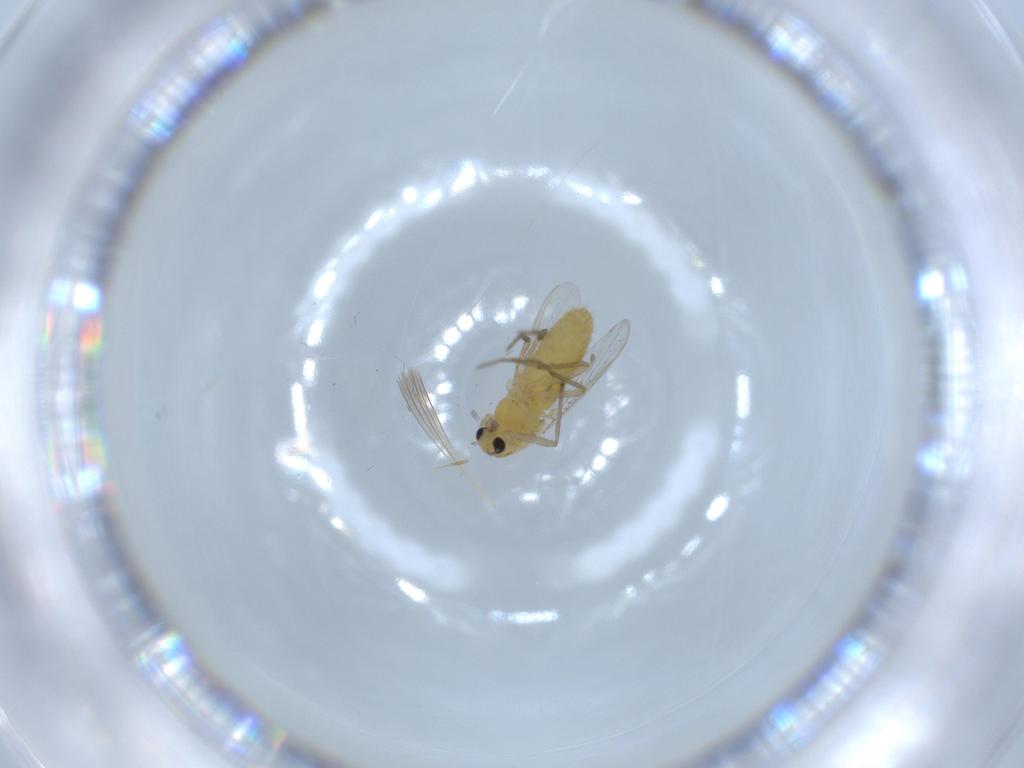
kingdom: Animalia
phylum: Arthropoda
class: Insecta
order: Diptera
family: Chironomidae
